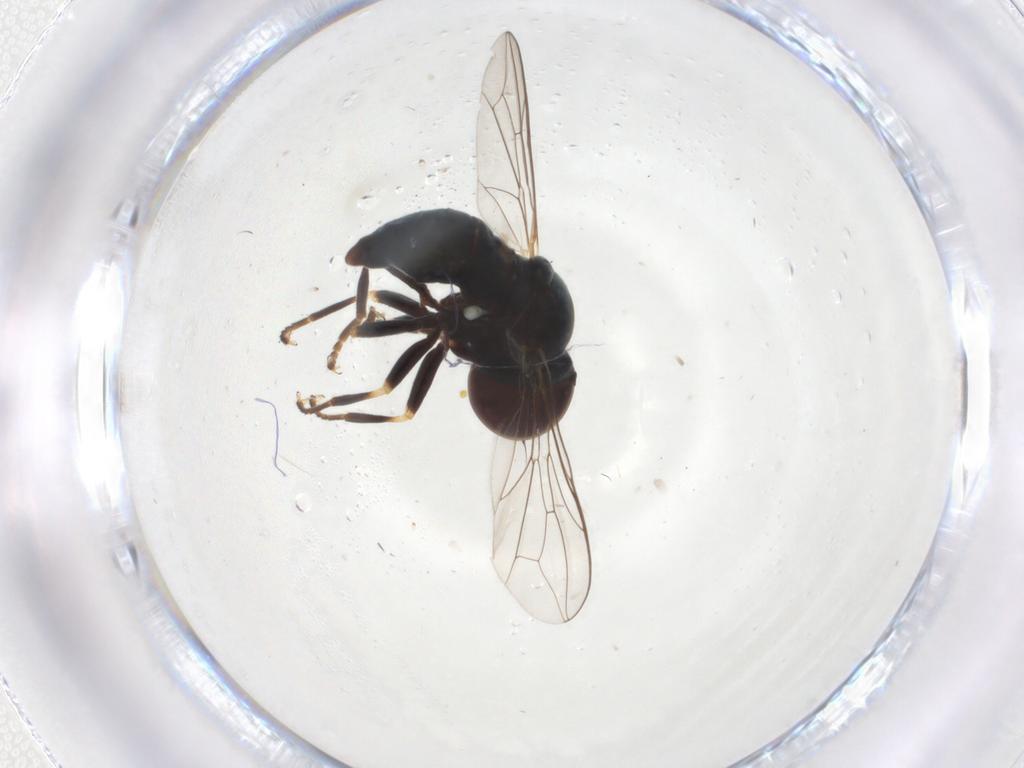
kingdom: Animalia
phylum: Arthropoda
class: Insecta
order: Diptera
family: Pipunculidae
